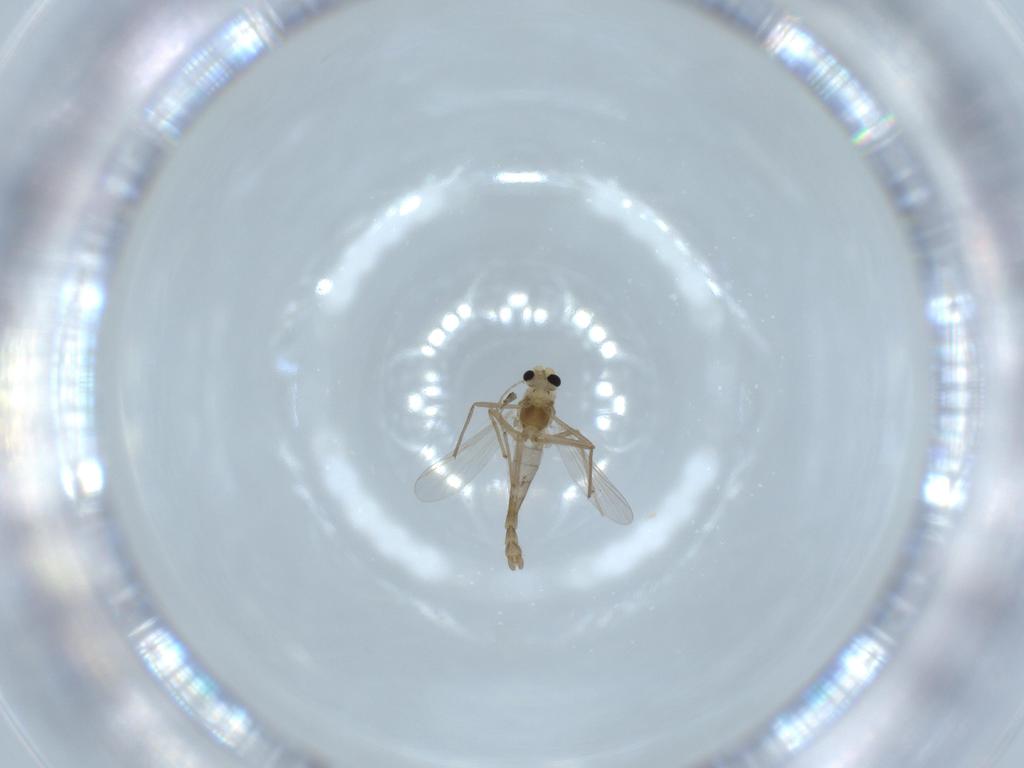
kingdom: Animalia
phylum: Arthropoda
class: Insecta
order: Diptera
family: Chironomidae
